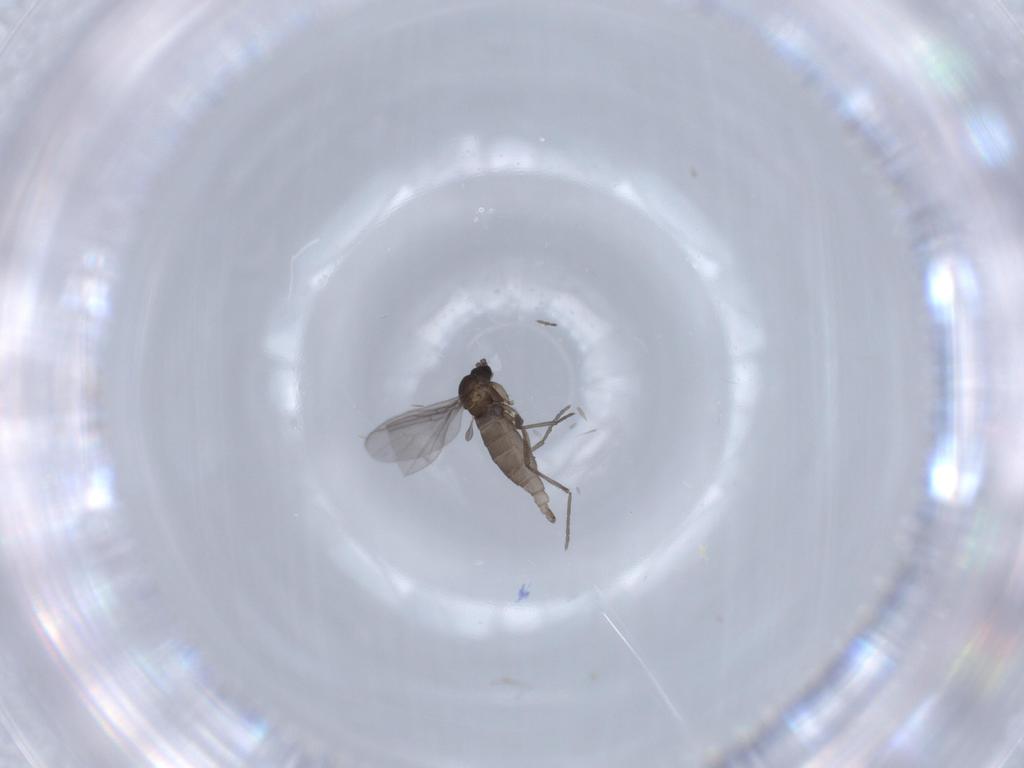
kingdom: Animalia
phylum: Arthropoda
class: Insecta
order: Diptera
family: Sciaridae
